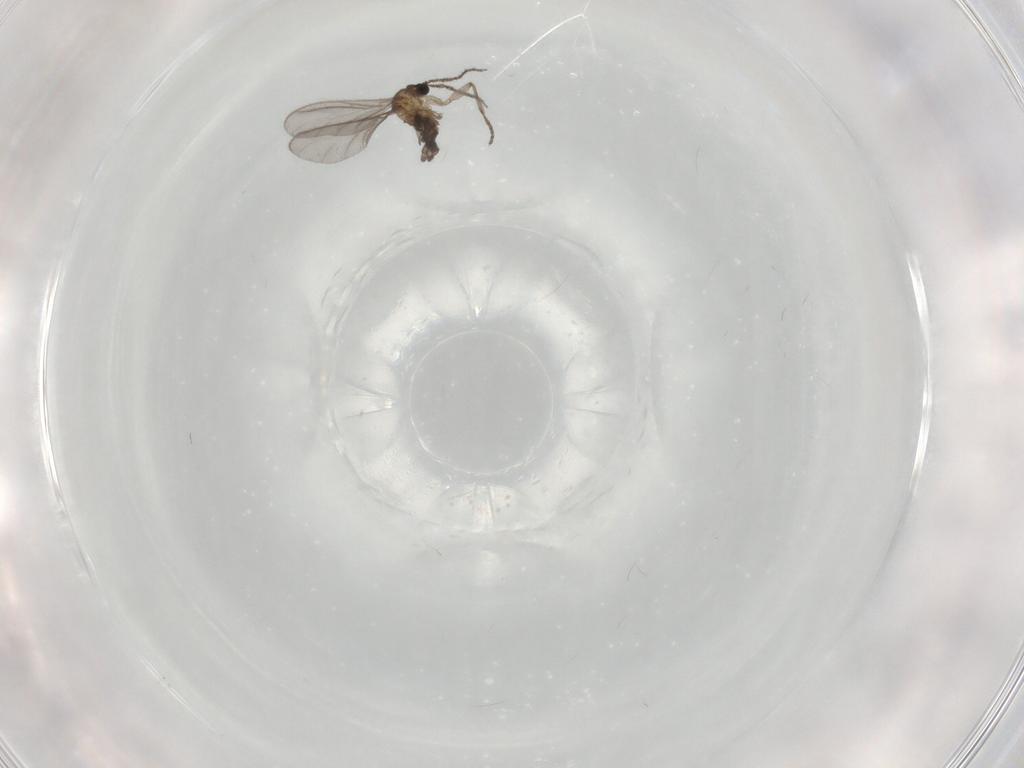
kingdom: Animalia
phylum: Arthropoda
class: Insecta
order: Diptera
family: Sciaridae
